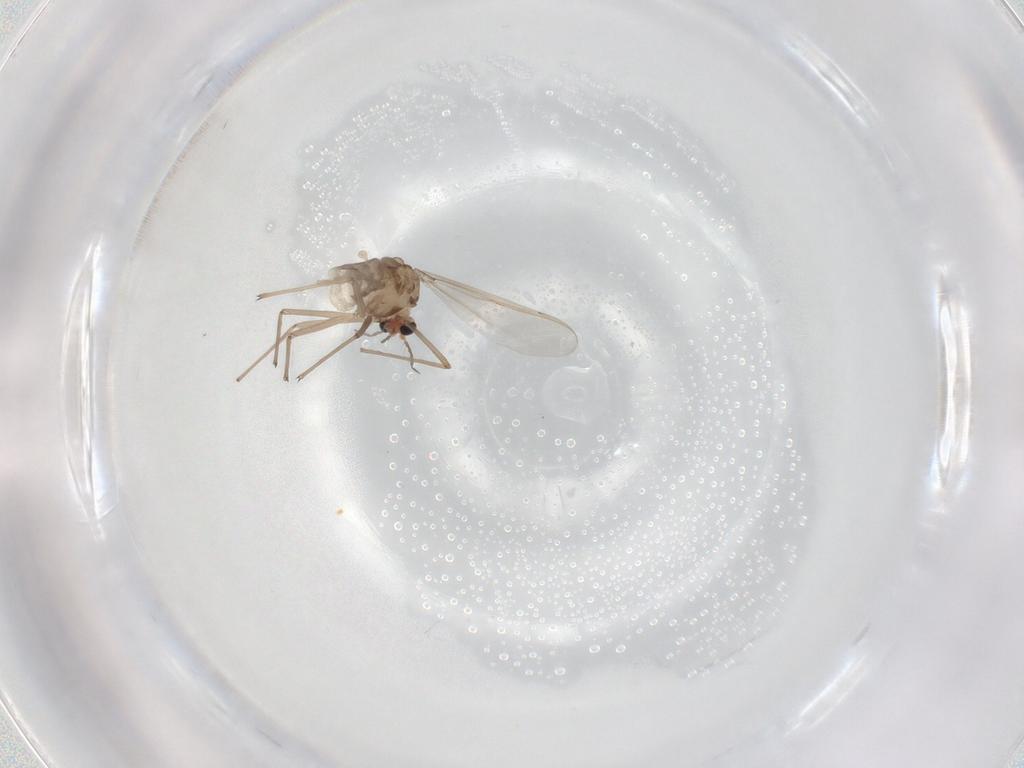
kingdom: Animalia
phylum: Arthropoda
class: Insecta
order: Diptera
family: Chironomidae
